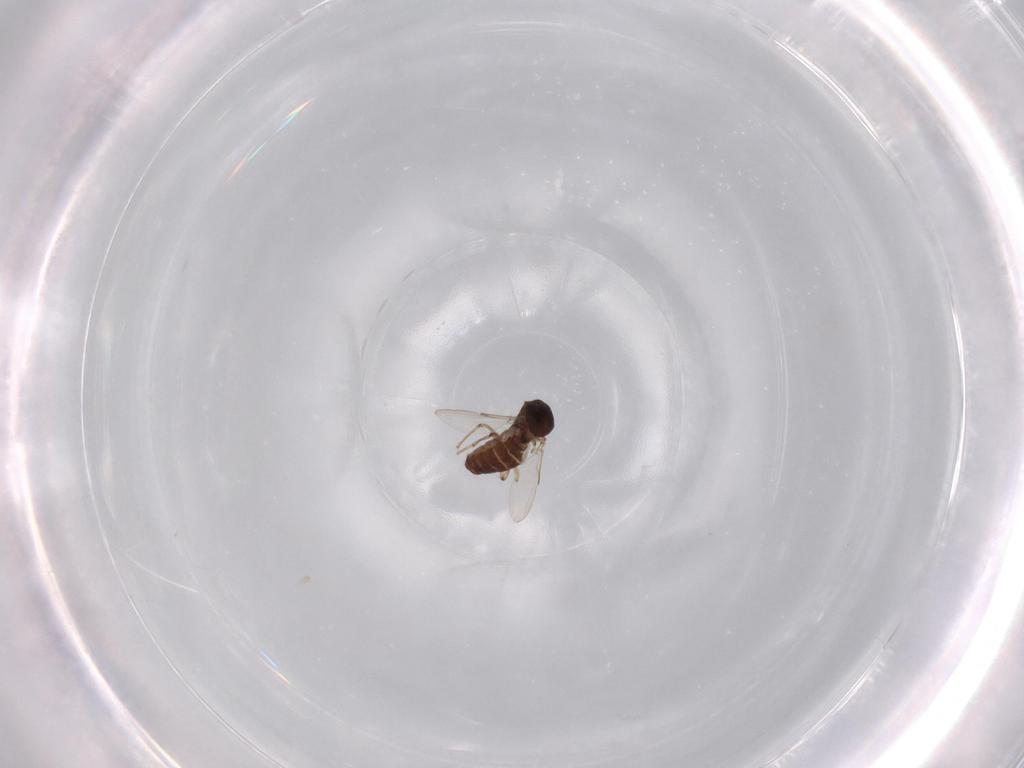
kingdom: Animalia
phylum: Arthropoda
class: Insecta
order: Diptera
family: Ceratopogonidae
